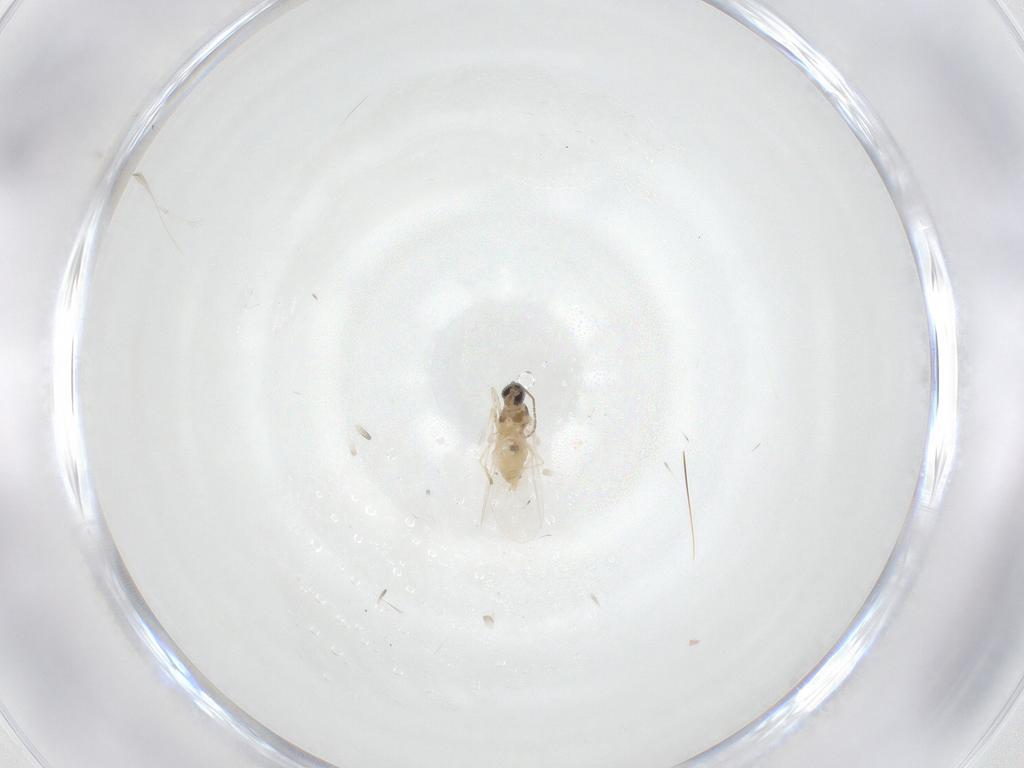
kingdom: Animalia
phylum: Arthropoda
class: Insecta
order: Diptera
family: Cecidomyiidae
